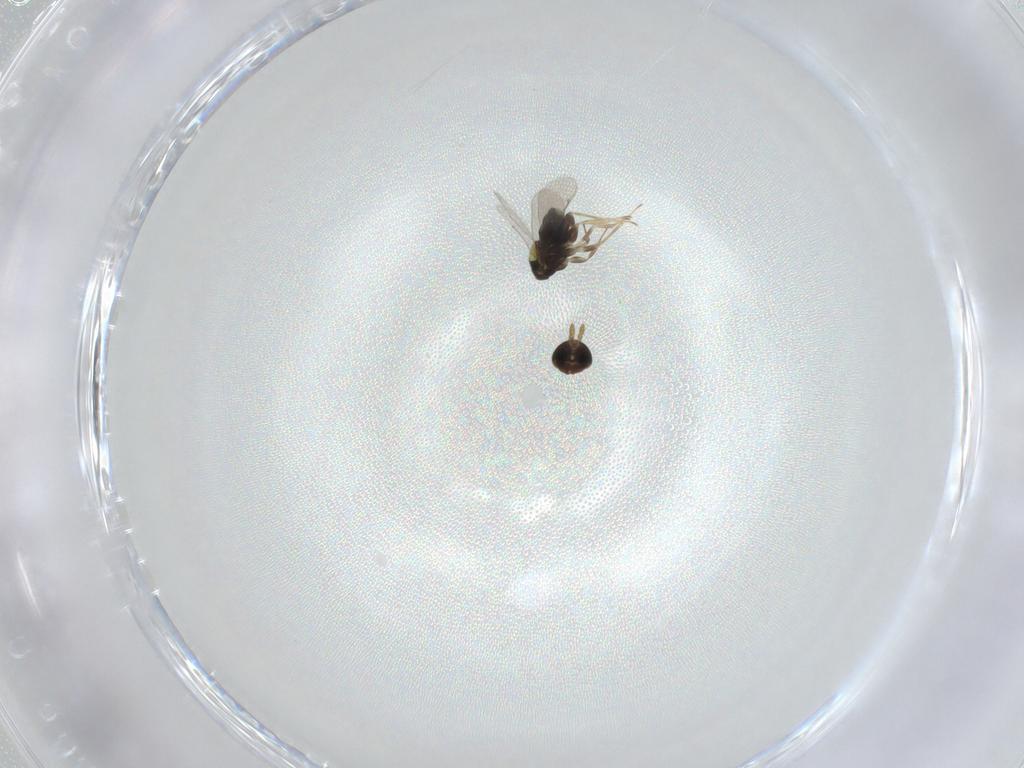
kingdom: Animalia
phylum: Arthropoda
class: Insecta
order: Hymenoptera
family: Aphelinidae
